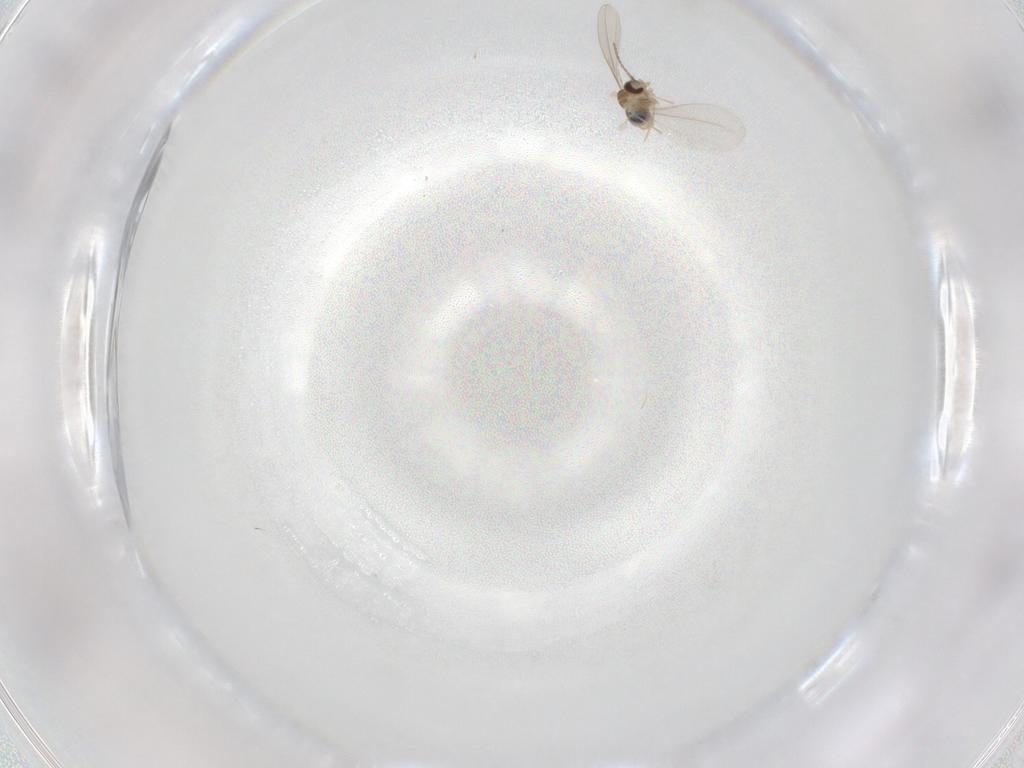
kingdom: Animalia
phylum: Arthropoda
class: Insecta
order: Diptera
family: Cecidomyiidae
